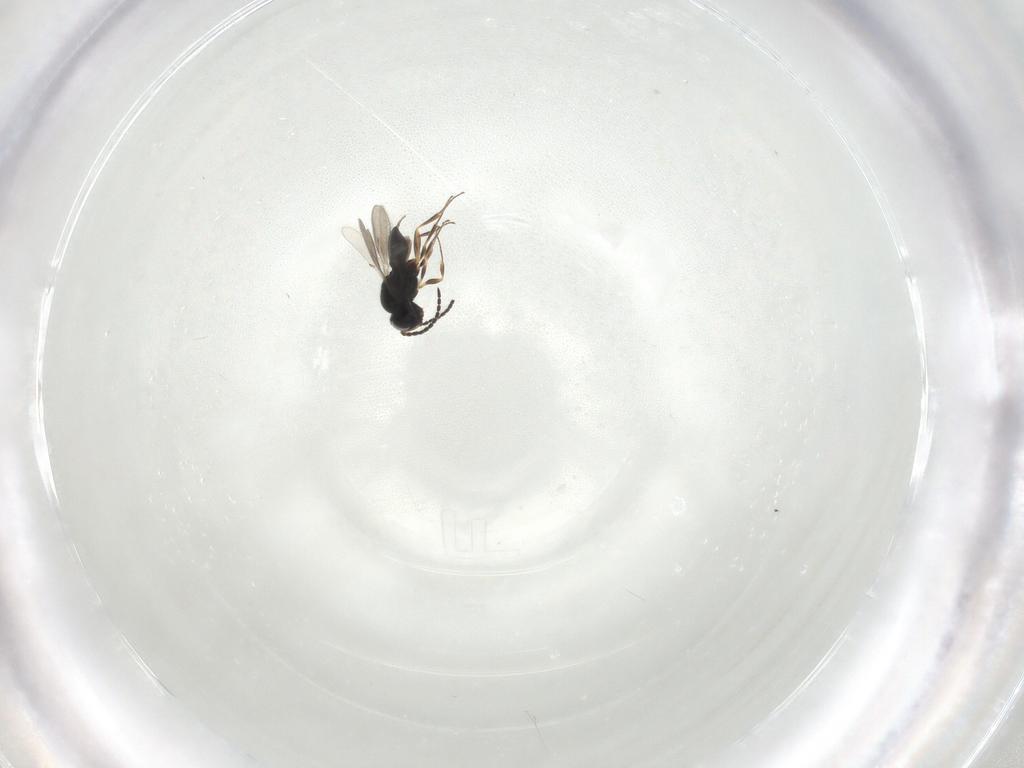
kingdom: Animalia
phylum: Arthropoda
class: Insecta
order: Hymenoptera
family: Scelionidae
